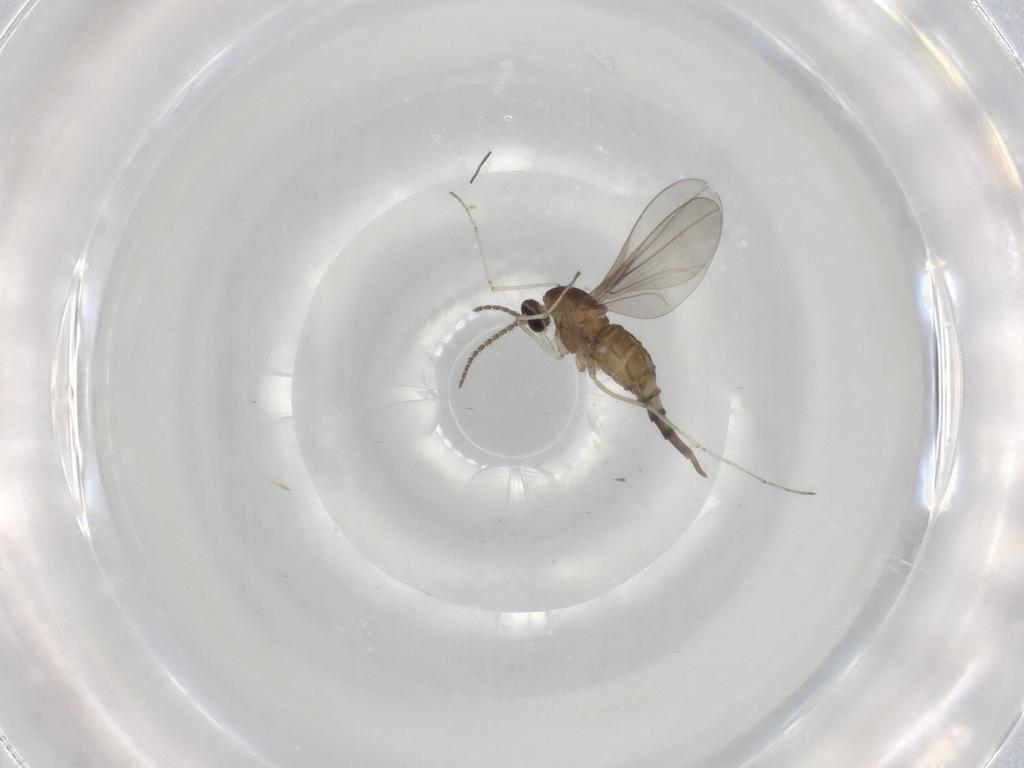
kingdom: Animalia
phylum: Arthropoda
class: Insecta
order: Diptera
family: Cecidomyiidae
